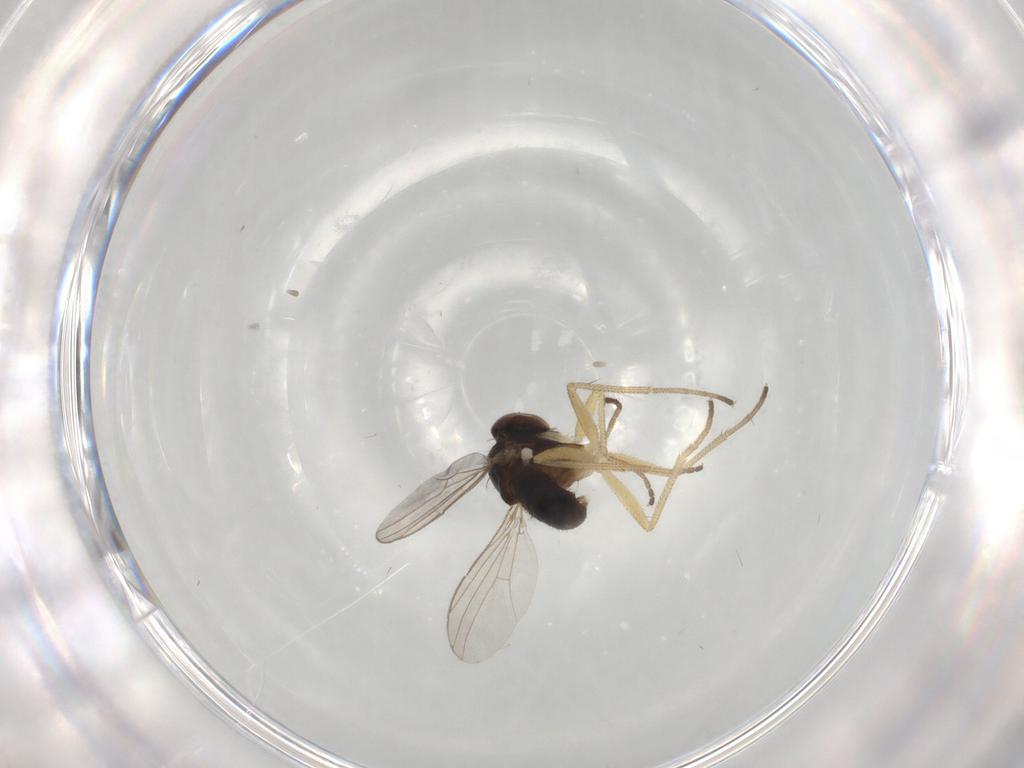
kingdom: Animalia
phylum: Arthropoda
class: Insecta
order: Diptera
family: Dolichopodidae
